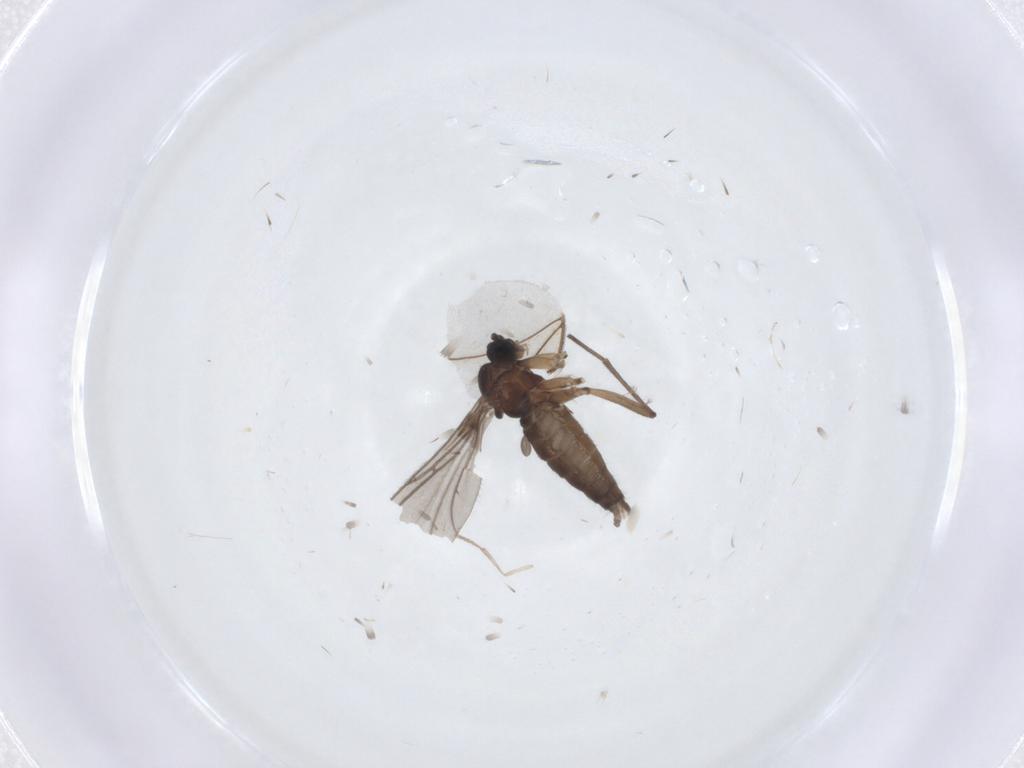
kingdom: Animalia
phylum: Arthropoda
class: Insecta
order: Diptera
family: Sciaridae
